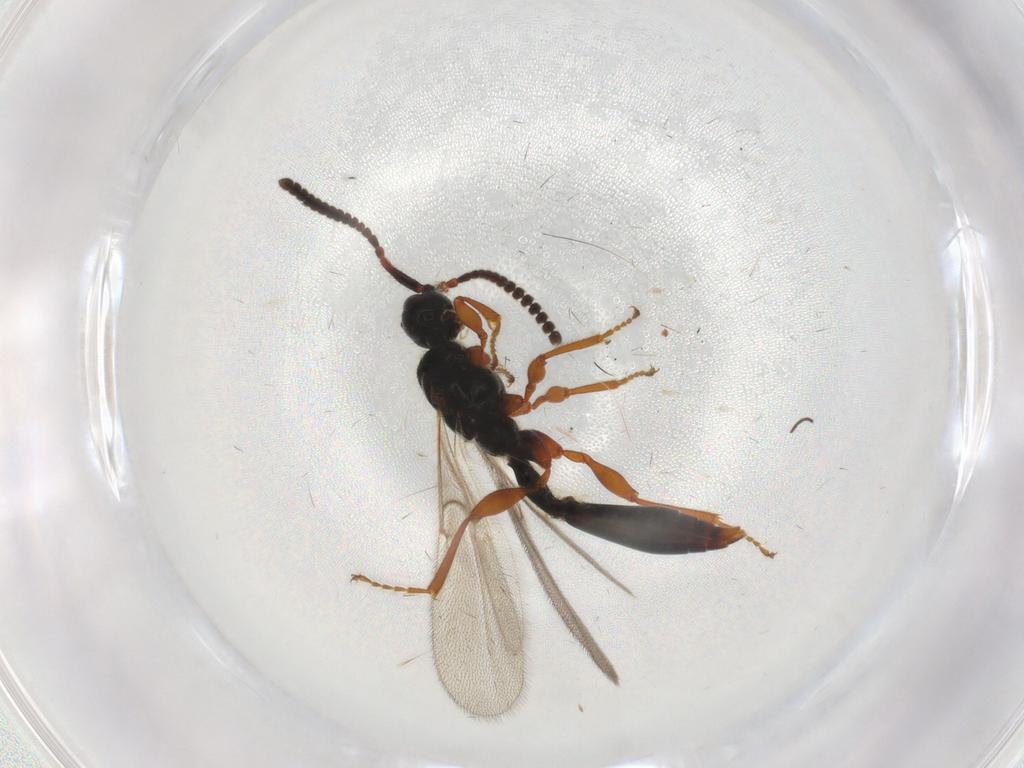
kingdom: Animalia
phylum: Arthropoda
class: Insecta
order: Hymenoptera
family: Diapriidae
